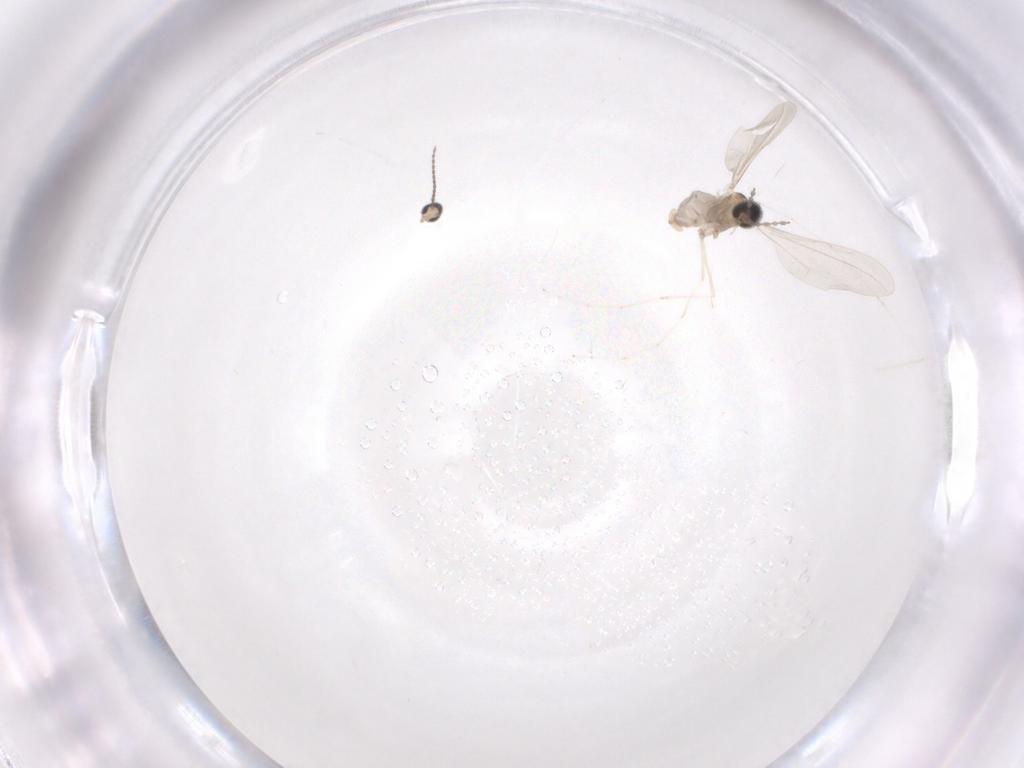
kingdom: Animalia
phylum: Arthropoda
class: Insecta
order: Diptera
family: Cecidomyiidae
